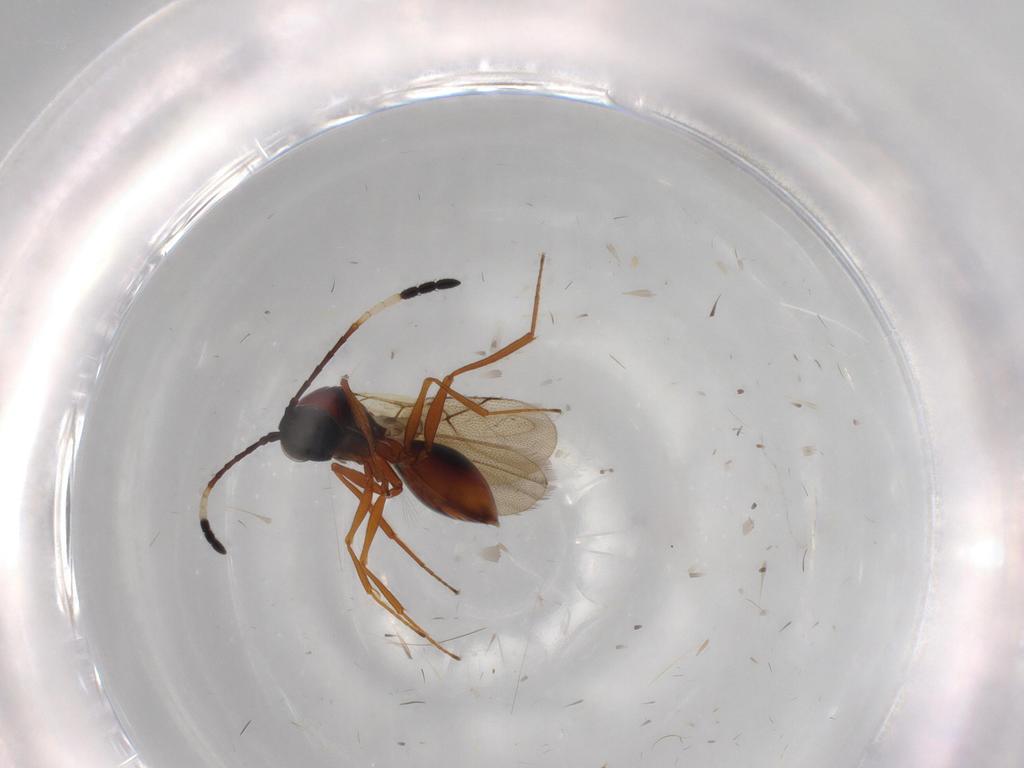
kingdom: Animalia
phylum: Arthropoda
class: Insecta
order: Hymenoptera
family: Figitidae
